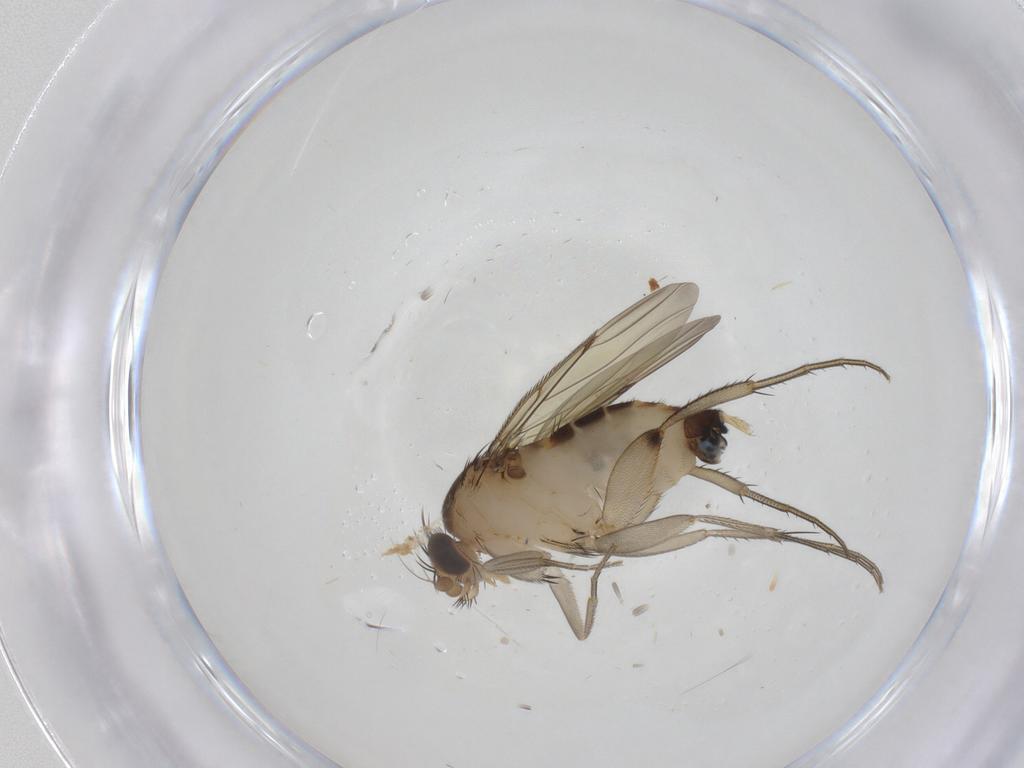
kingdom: Animalia
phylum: Arthropoda
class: Insecta
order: Diptera
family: Phoridae
